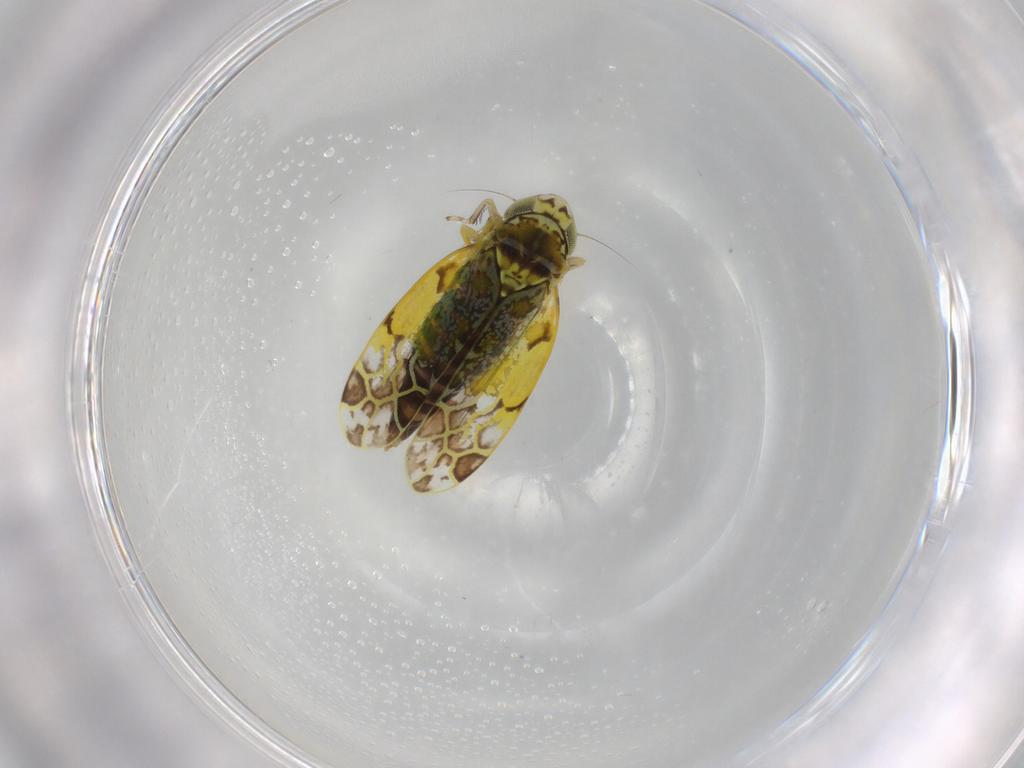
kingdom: Animalia
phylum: Arthropoda
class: Insecta
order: Hemiptera
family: Cicadellidae
